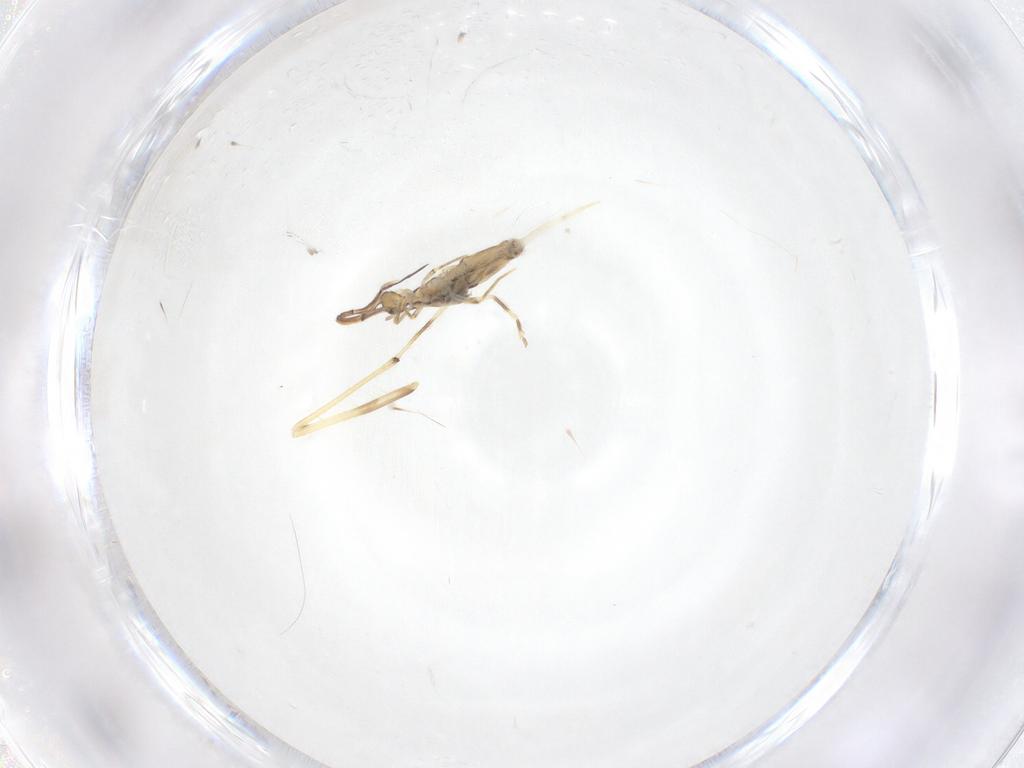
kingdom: Animalia
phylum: Arthropoda
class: Insecta
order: Diptera
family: Chironomidae
